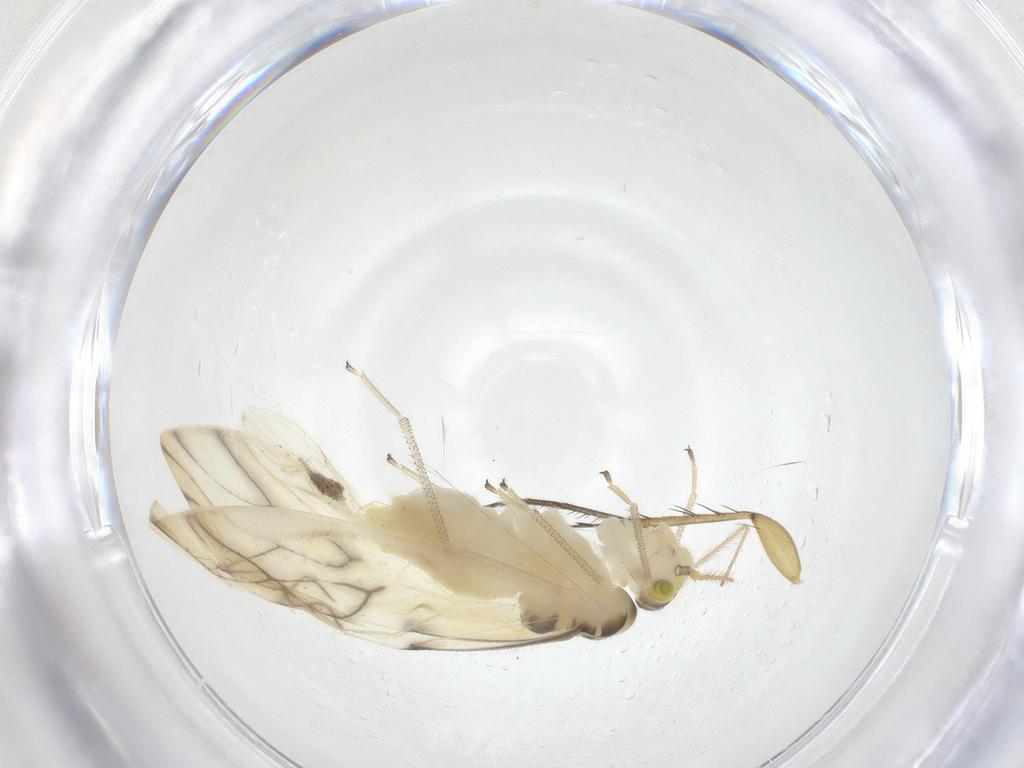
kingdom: Animalia
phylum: Arthropoda
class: Insecta
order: Psocodea
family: Caeciliusidae
